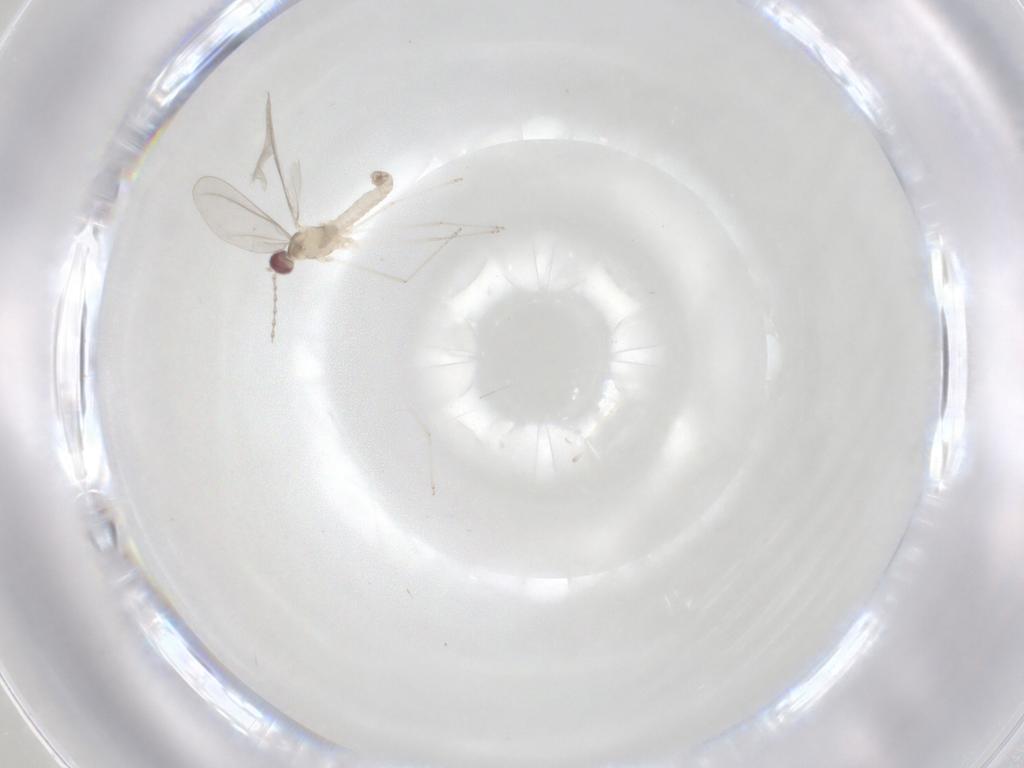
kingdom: Animalia
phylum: Arthropoda
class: Insecta
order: Diptera
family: Cecidomyiidae
